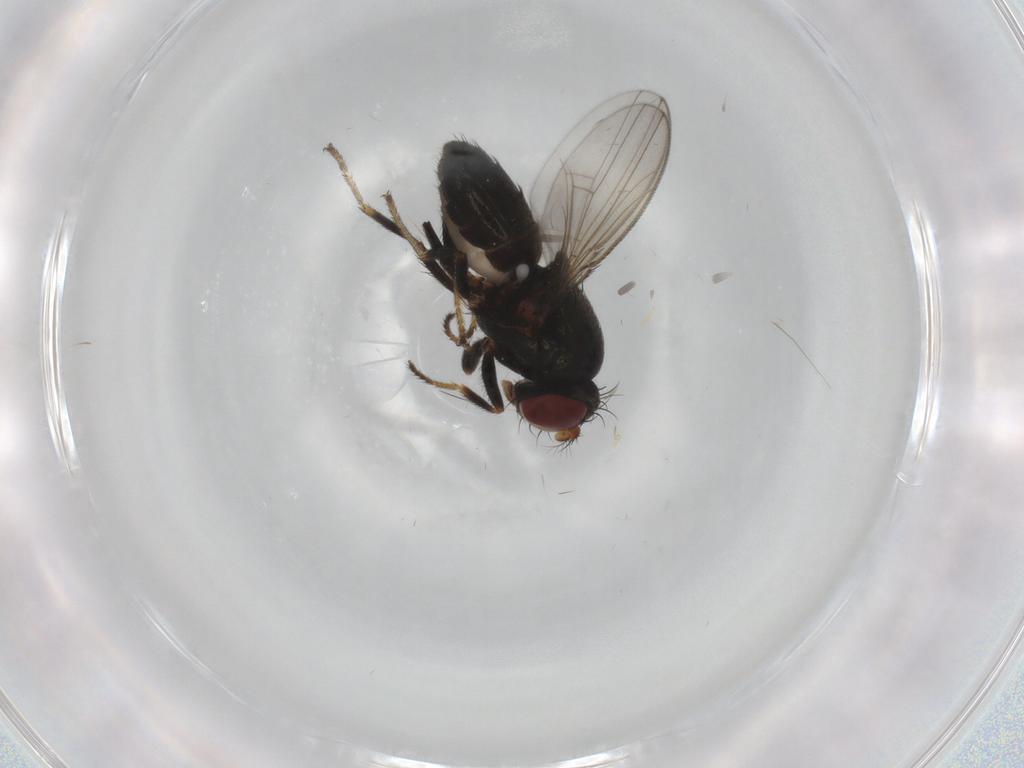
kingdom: Animalia
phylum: Arthropoda
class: Insecta
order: Diptera
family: Ephydridae
